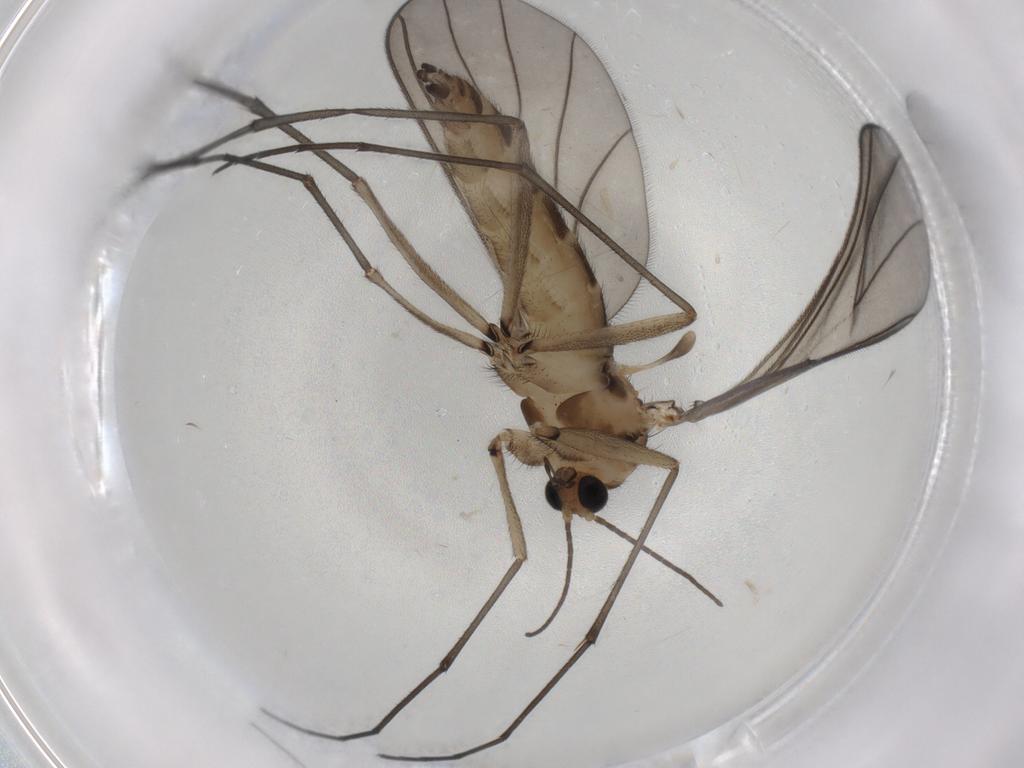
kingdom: Animalia
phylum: Arthropoda
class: Insecta
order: Diptera
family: Sciaridae
